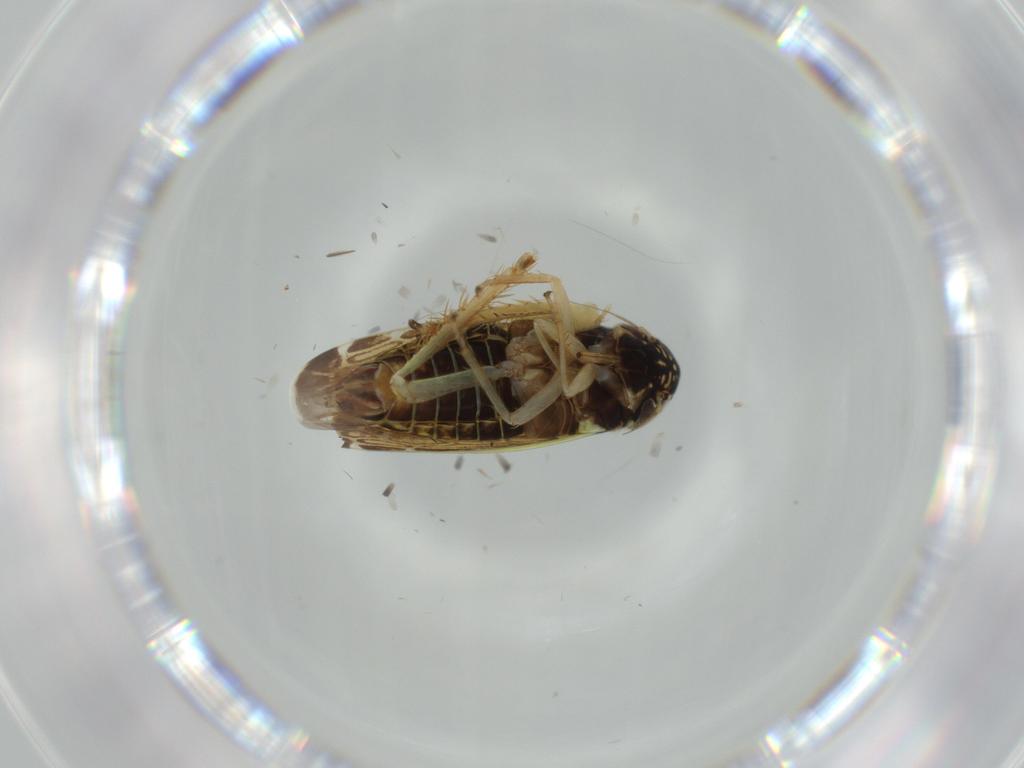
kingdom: Animalia
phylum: Arthropoda
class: Insecta
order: Hemiptera
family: Cicadellidae
